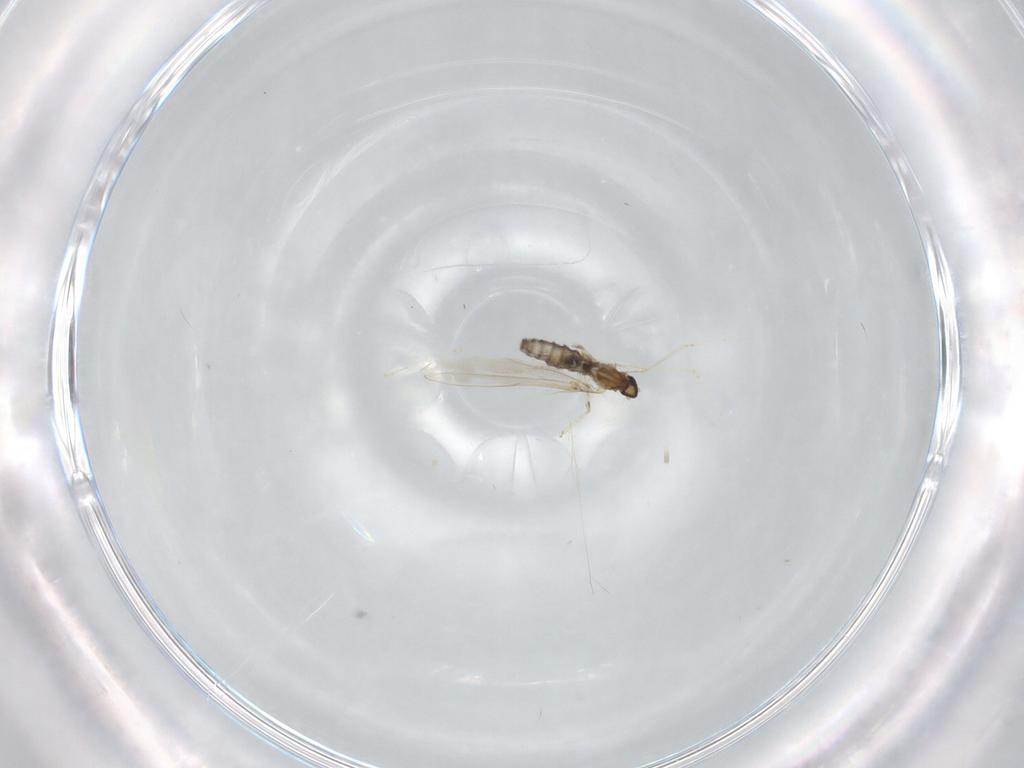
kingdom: Animalia
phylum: Arthropoda
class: Insecta
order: Diptera
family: Cecidomyiidae
